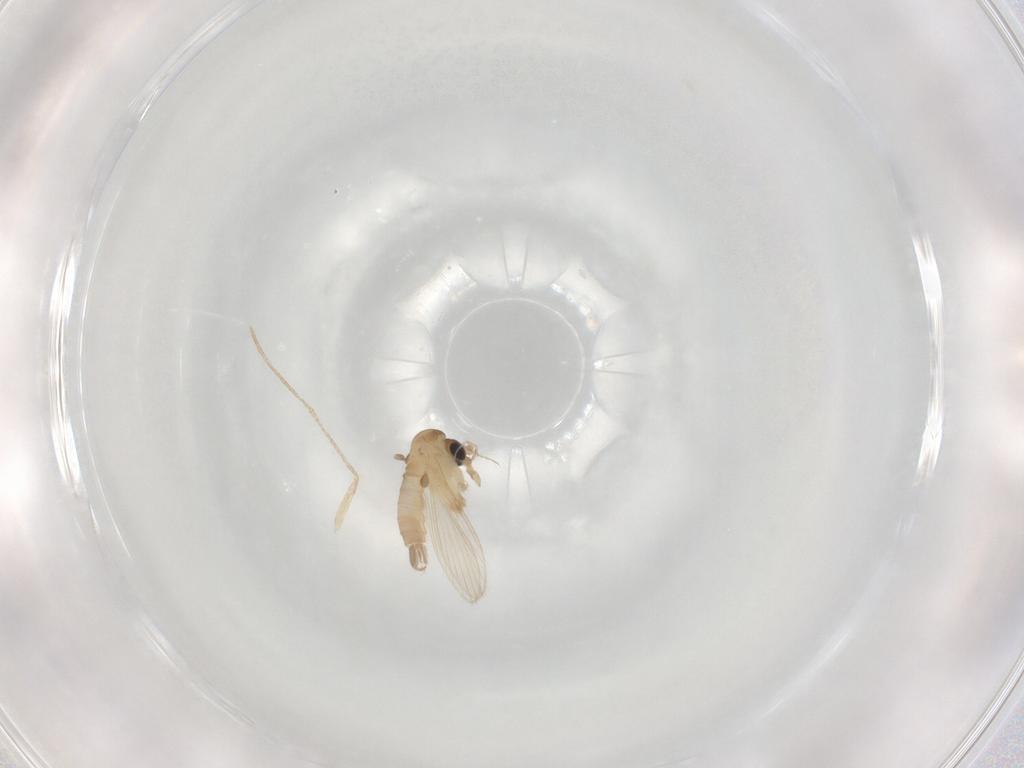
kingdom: Animalia
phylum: Arthropoda
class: Insecta
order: Diptera
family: Psychodidae
